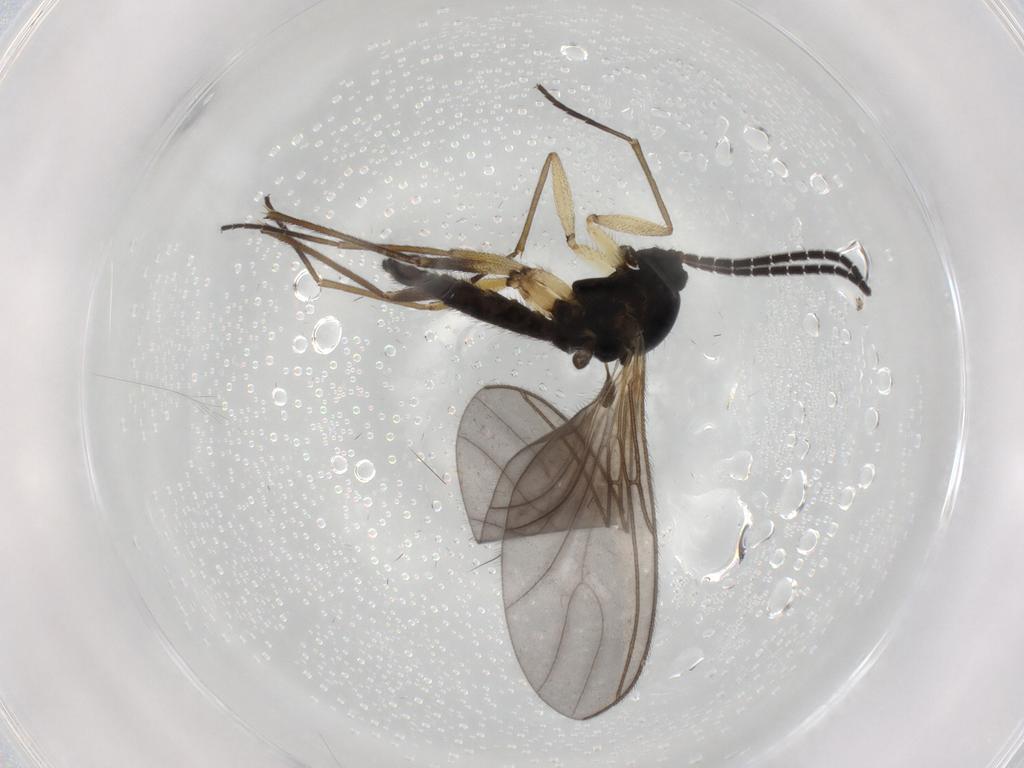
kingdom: Animalia
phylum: Arthropoda
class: Insecta
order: Diptera
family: Sciaridae
